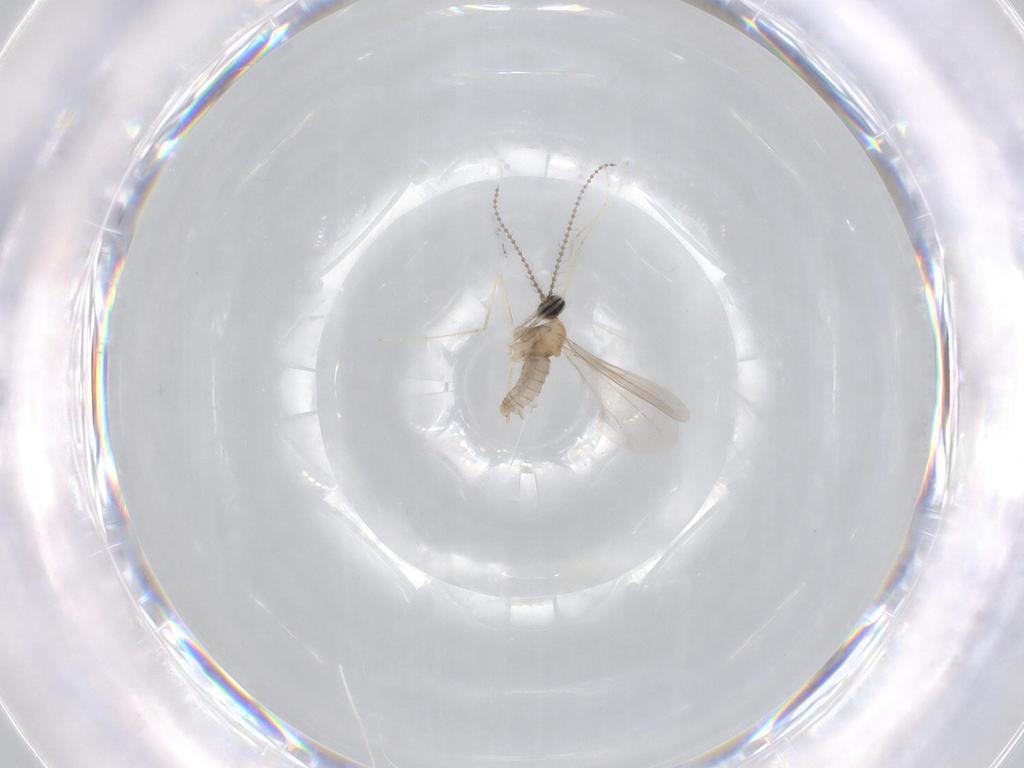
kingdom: Animalia
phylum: Arthropoda
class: Insecta
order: Diptera
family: Cecidomyiidae
